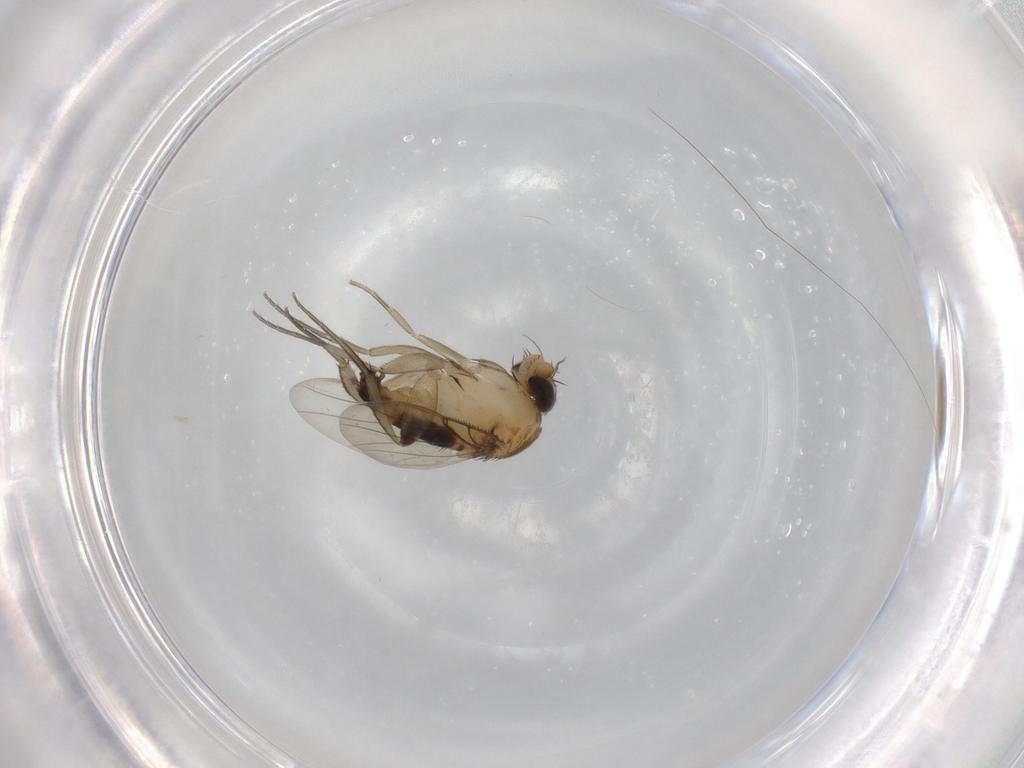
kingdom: Animalia
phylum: Arthropoda
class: Insecta
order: Diptera
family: Phoridae
